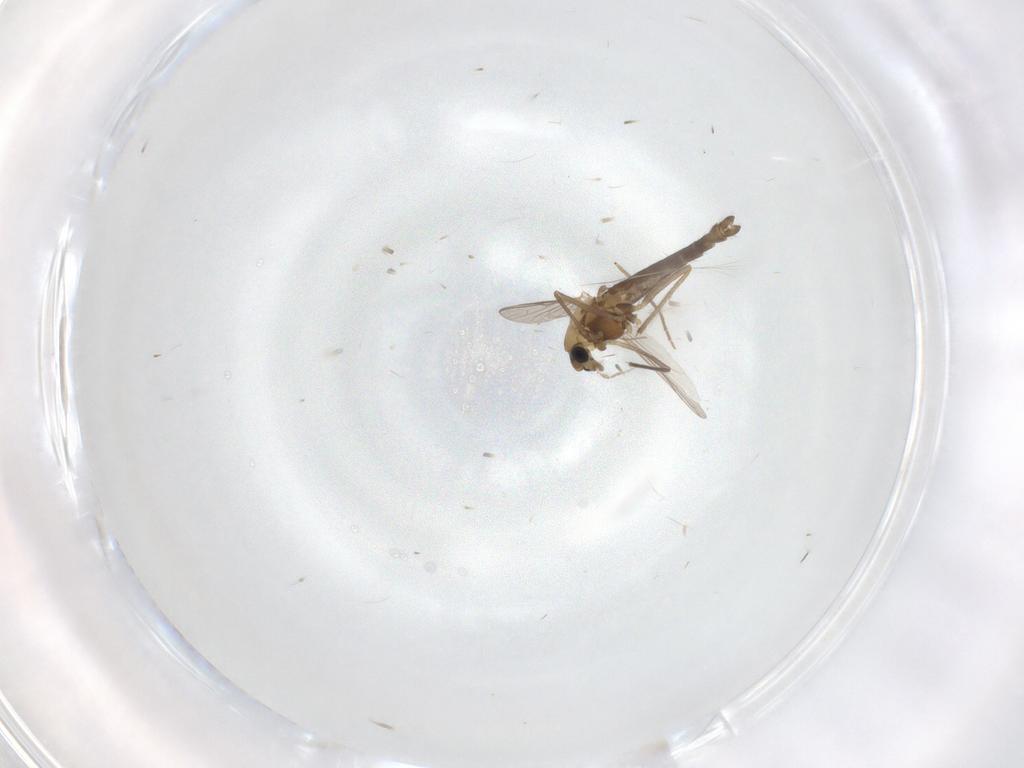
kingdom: Animalia
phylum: Arthropoda
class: Insecta
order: Diptera
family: Chironomidae
